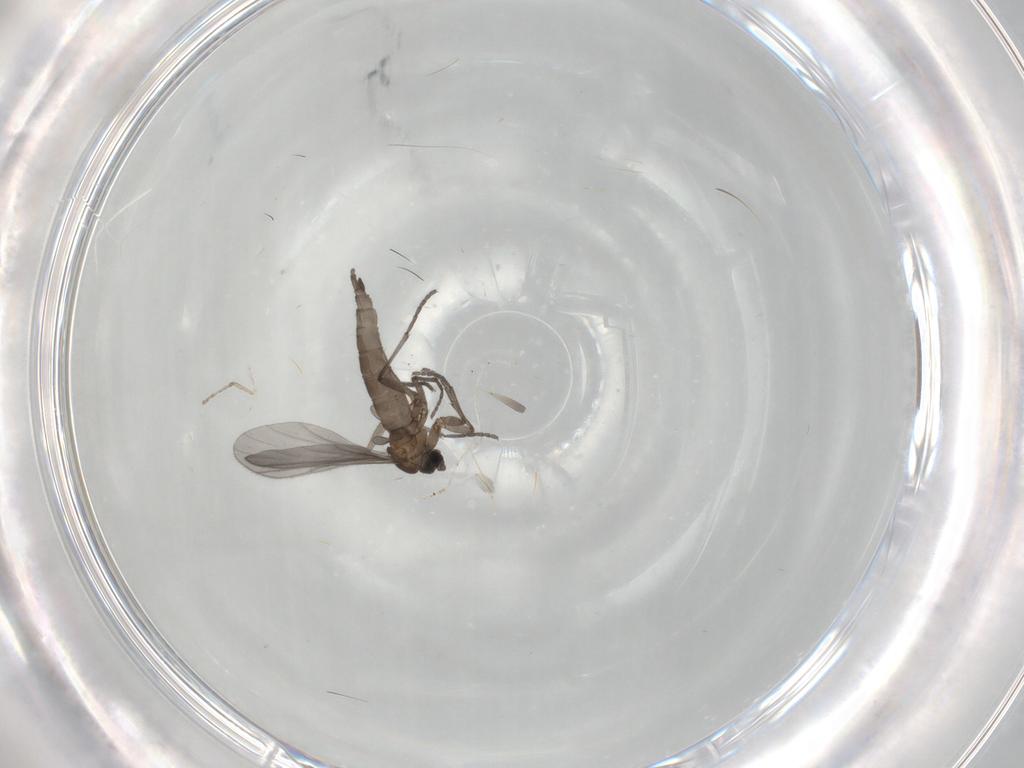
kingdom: Animalia
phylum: Arthropoda
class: Insecta
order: Diptera
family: Sciaridae
